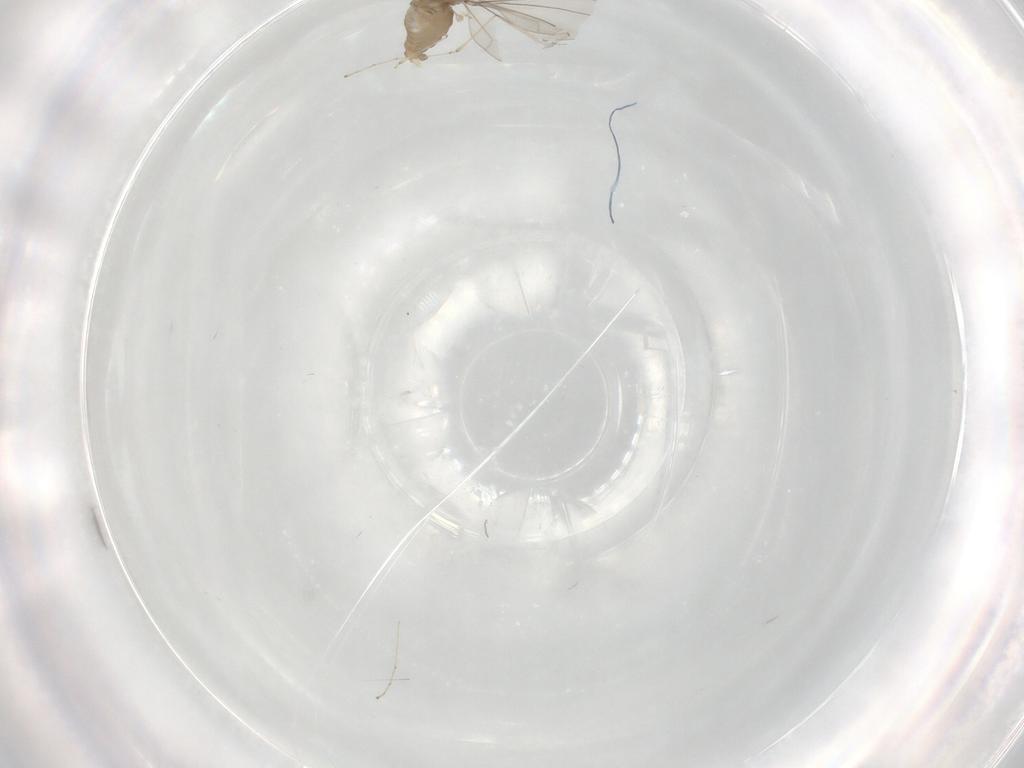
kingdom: Animalia
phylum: Arthropoda
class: Insecta
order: Diptera
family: Cecidomyiidae
